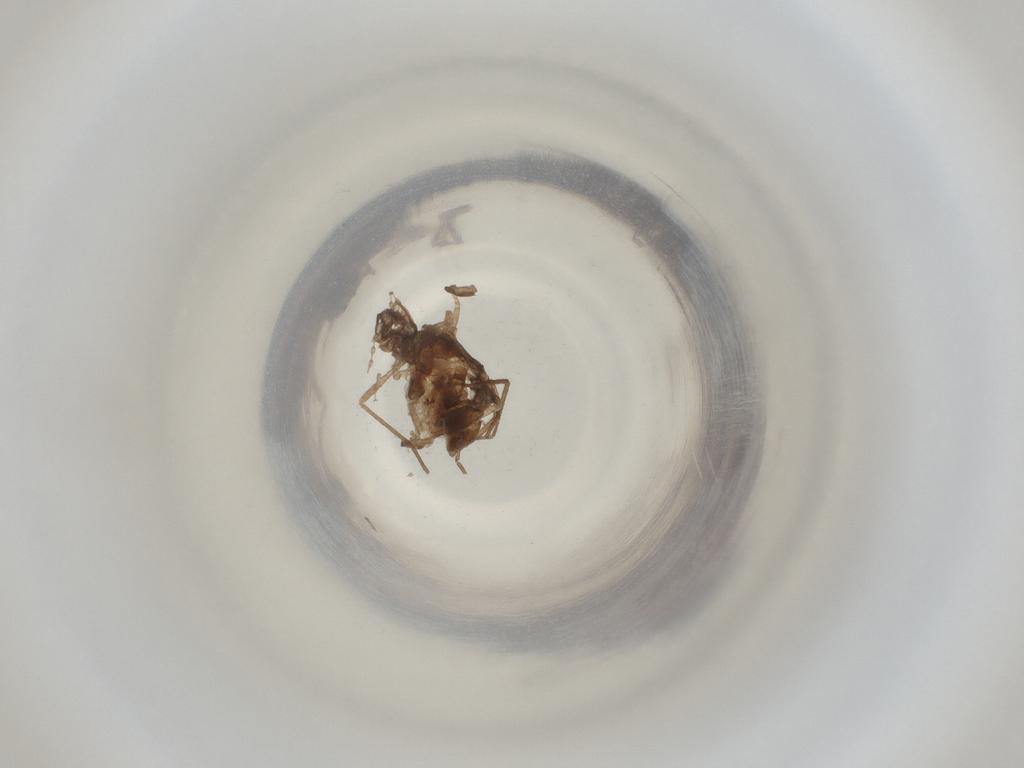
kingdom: Animalia
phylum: Arthropoda
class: Insecta
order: Diptera
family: Cecidomyiidae
